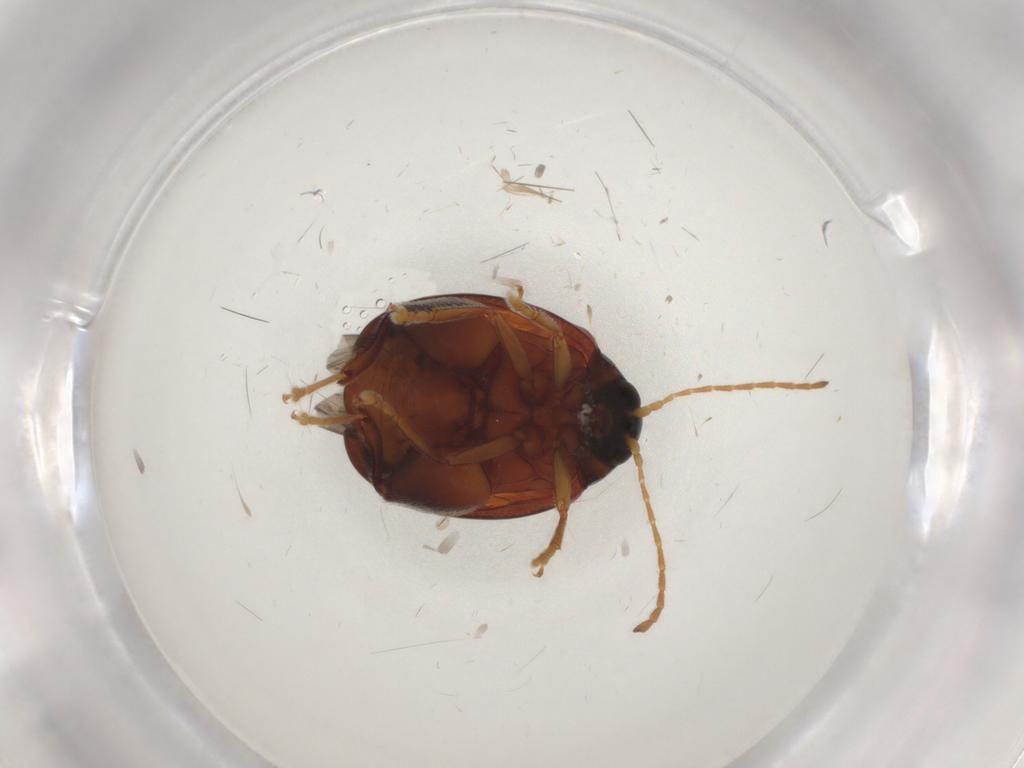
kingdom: Animalia
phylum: Arthropoda
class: Insecta
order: Coleoptera
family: Chrysomelidae
